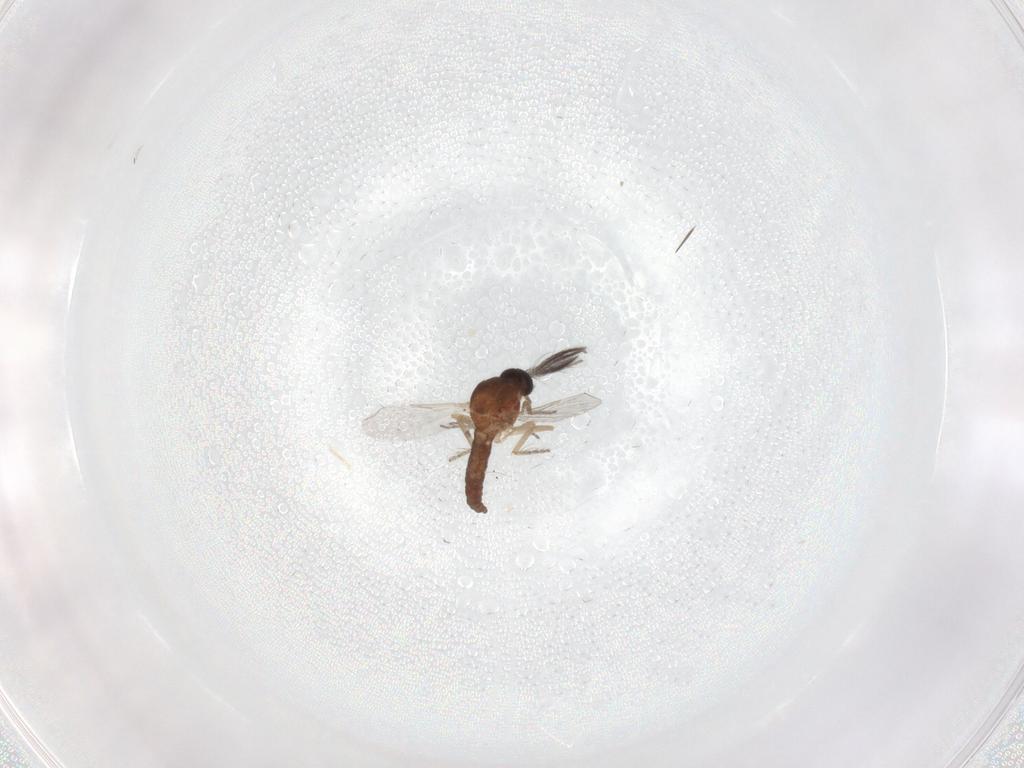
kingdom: Animalia
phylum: Arthropoda
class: Insecta
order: Diptera
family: Ceratopogonidae
